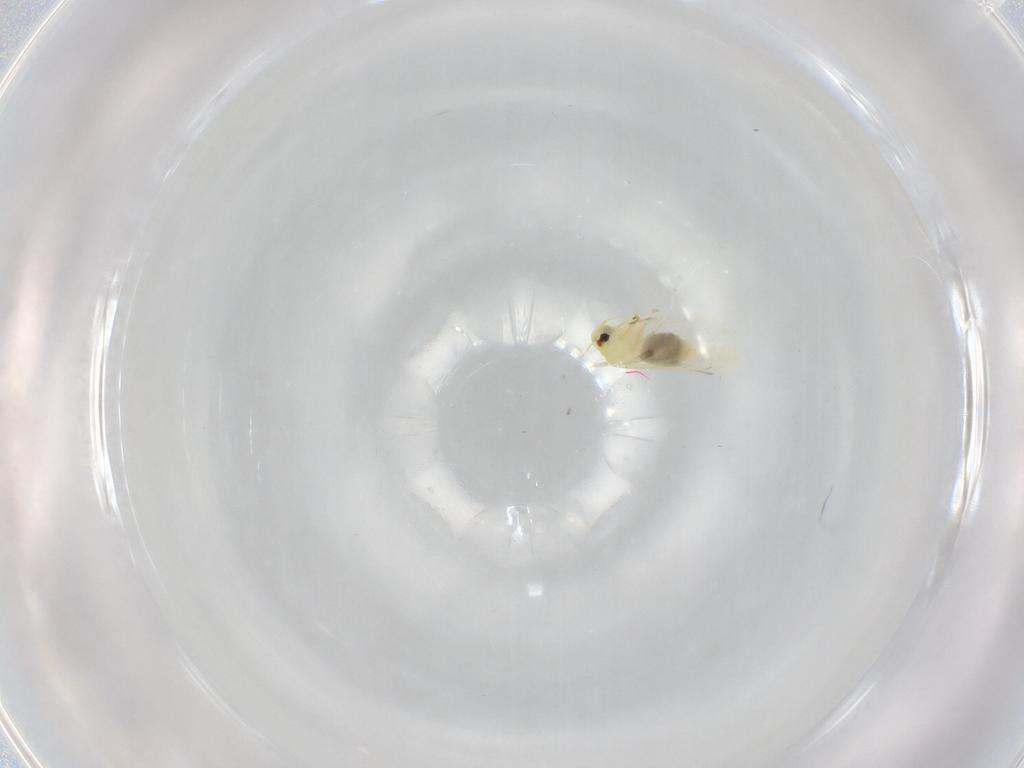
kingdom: Animalia
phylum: Arthropoda
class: Insecta
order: Hemiptera
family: Aleyrodidae
